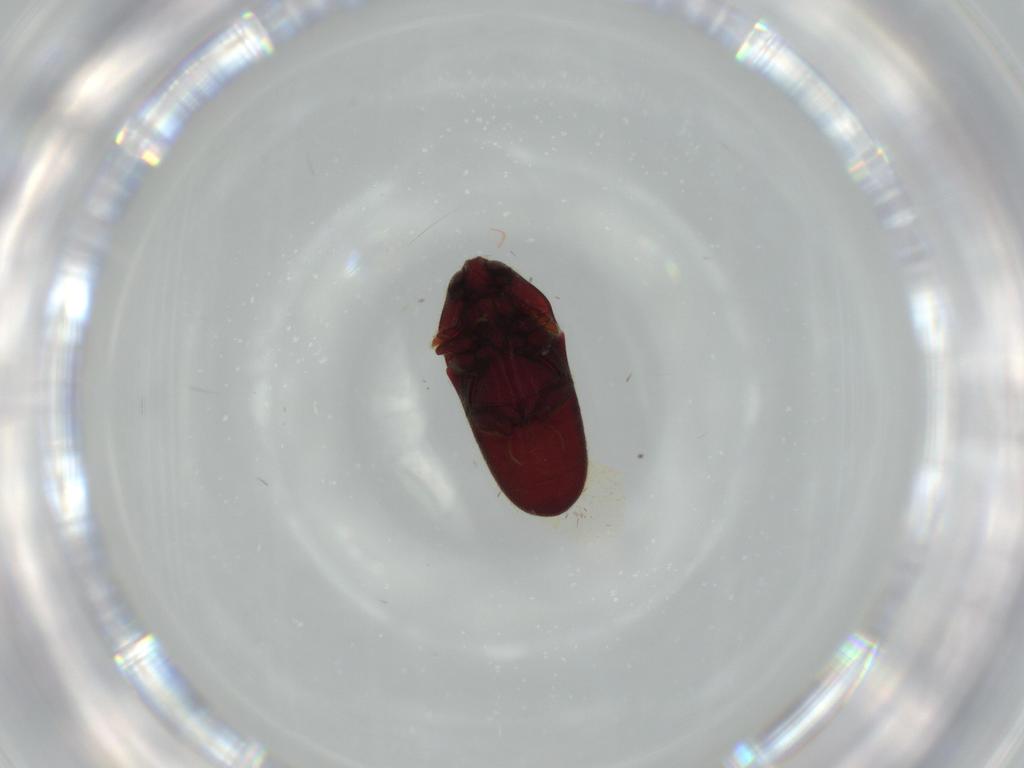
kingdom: Animalia
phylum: Arthropoda
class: Insecta
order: Coleoptera
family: Throscidae
